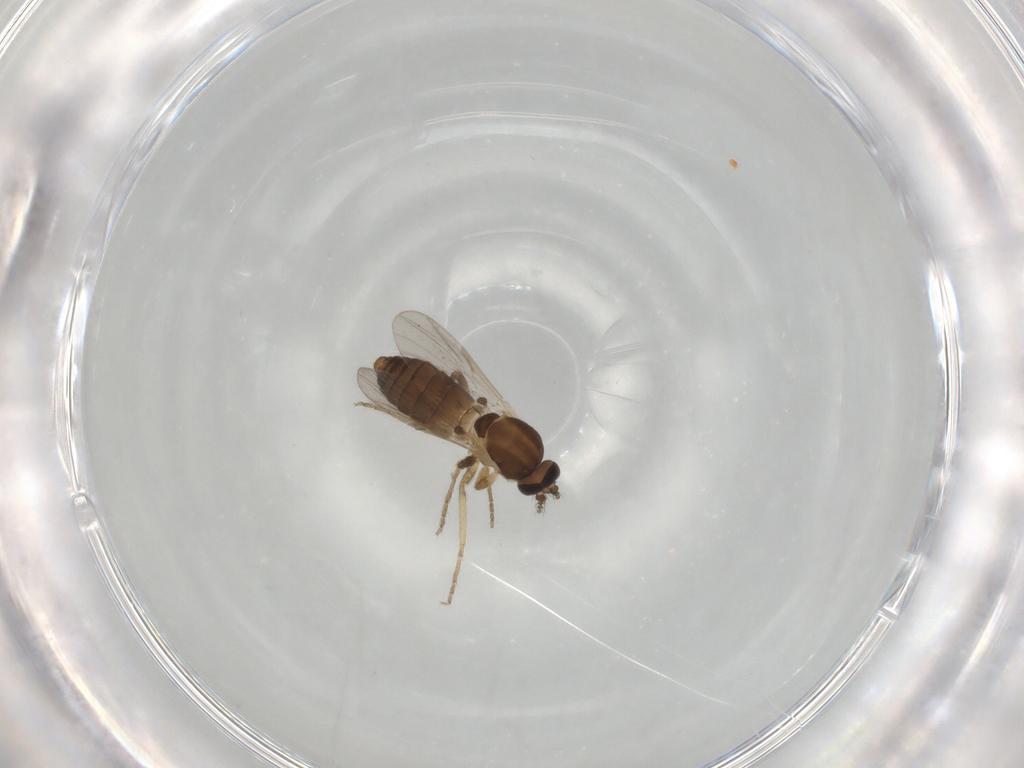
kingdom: Animalia
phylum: Arthropoda
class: Insecta
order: Diptera
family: Ceratopogonidae
